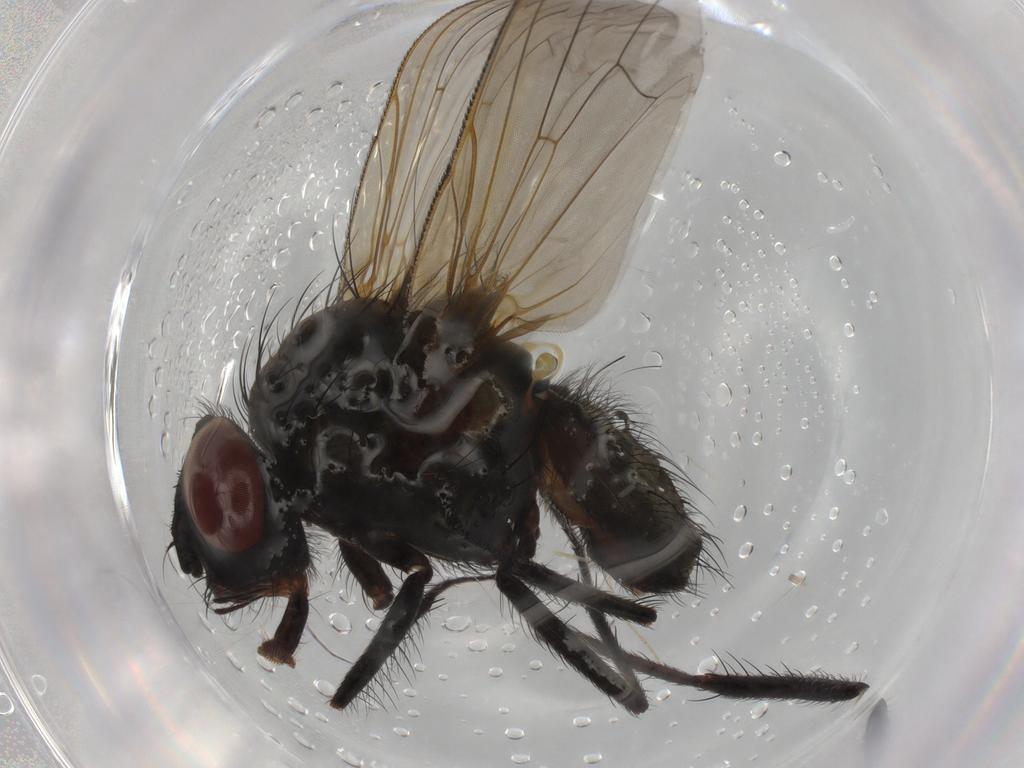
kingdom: Animalia
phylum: Arthropoda
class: Insecta
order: Diptera
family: Anthomyiidae
